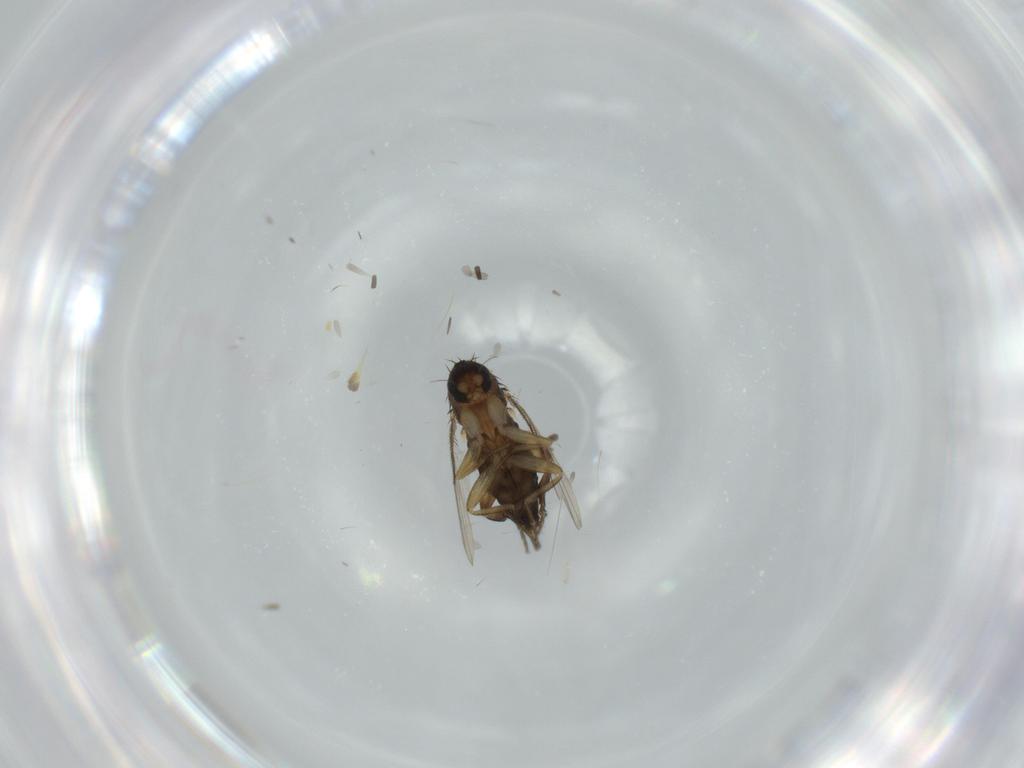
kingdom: Animalia
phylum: Arthropoda
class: Insecta
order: Diptera
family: Phoridae
